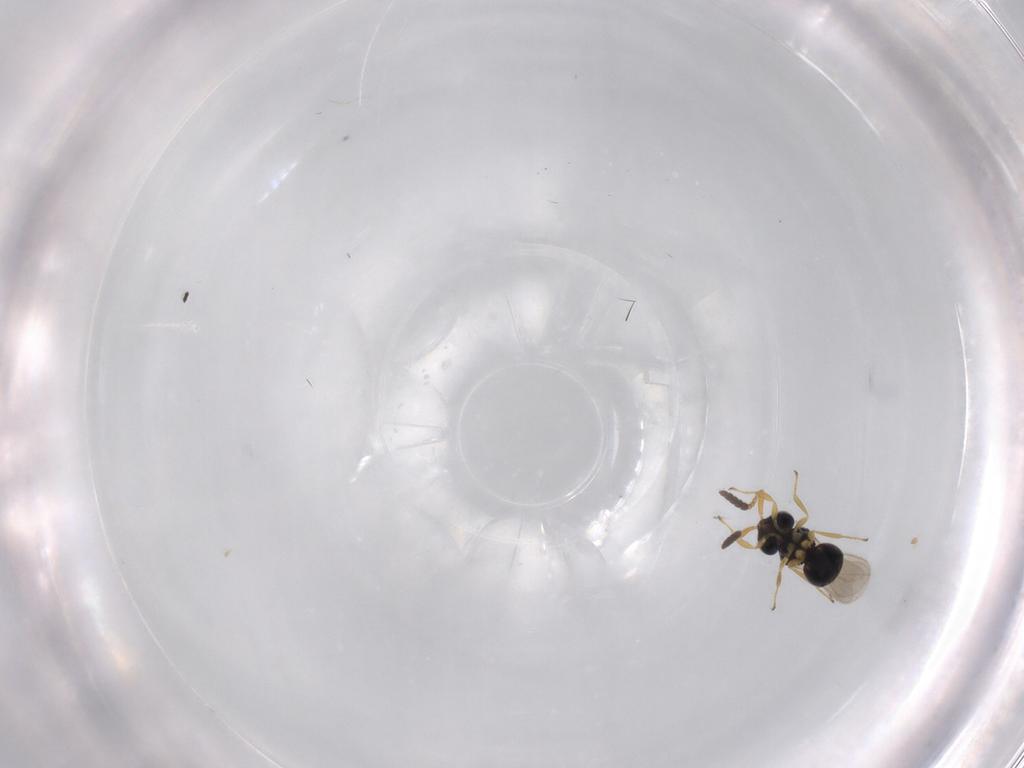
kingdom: Animalia
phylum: Arthropoda
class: Insecta
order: Hymenoptera
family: Scelionidae
